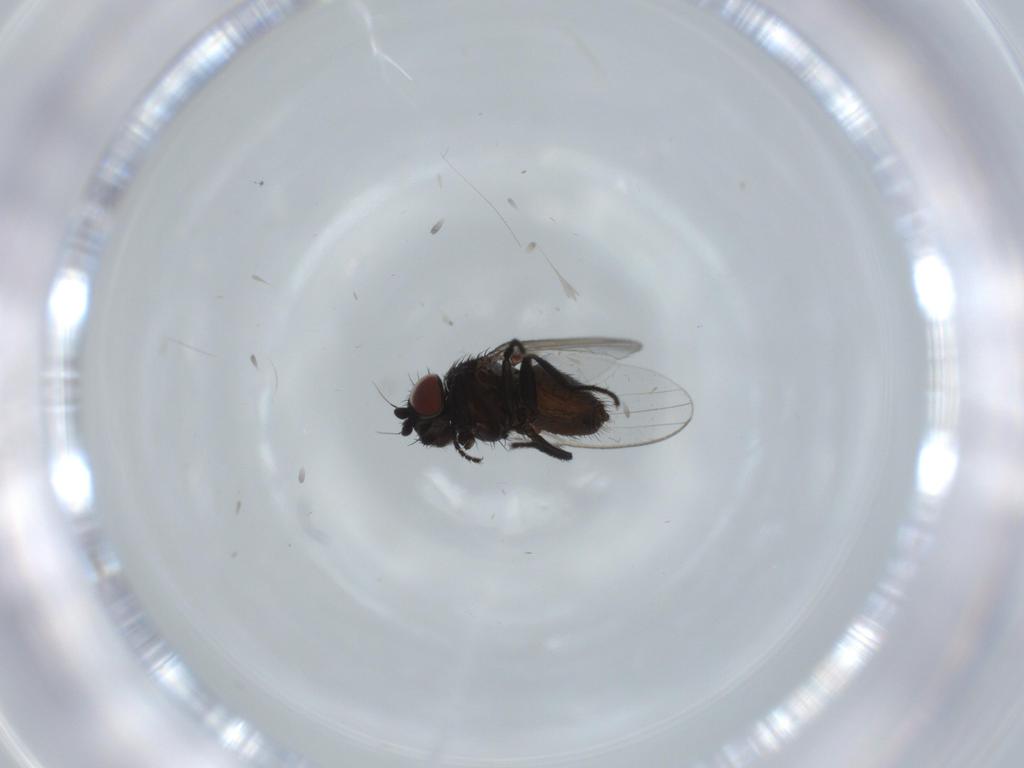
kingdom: Animalia
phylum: Arthropoda
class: Insecta
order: Diptera
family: Milichiidae
